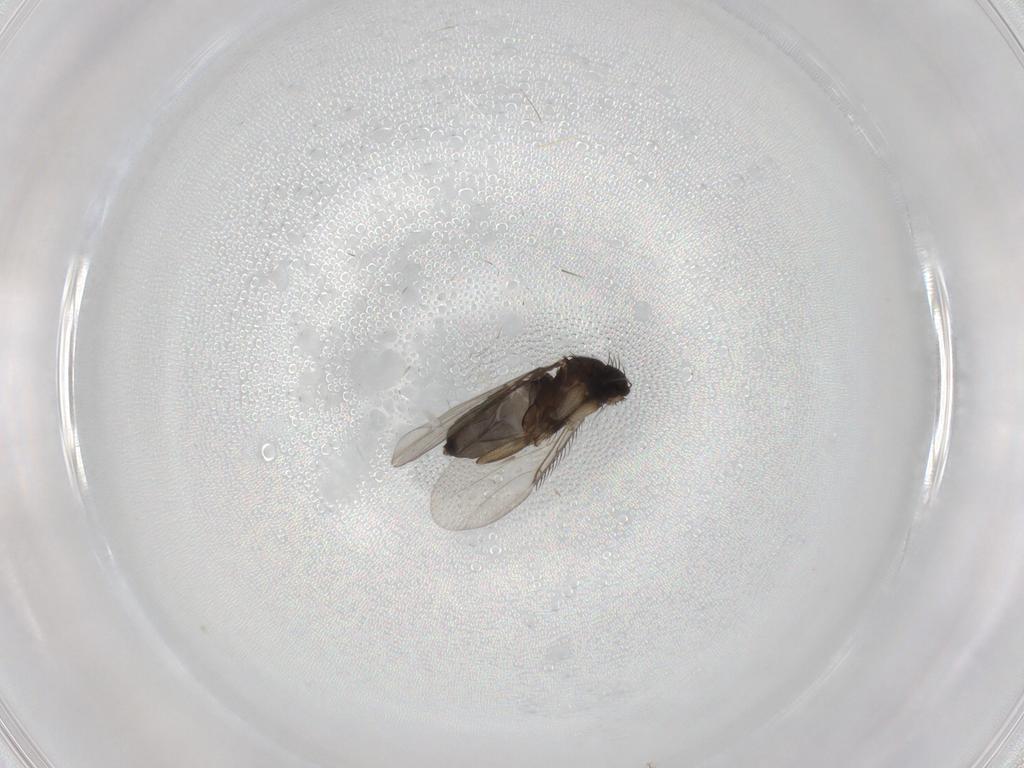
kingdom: Animalia
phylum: Arthropoda
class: Insecta
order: Diptera
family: Phoridae
